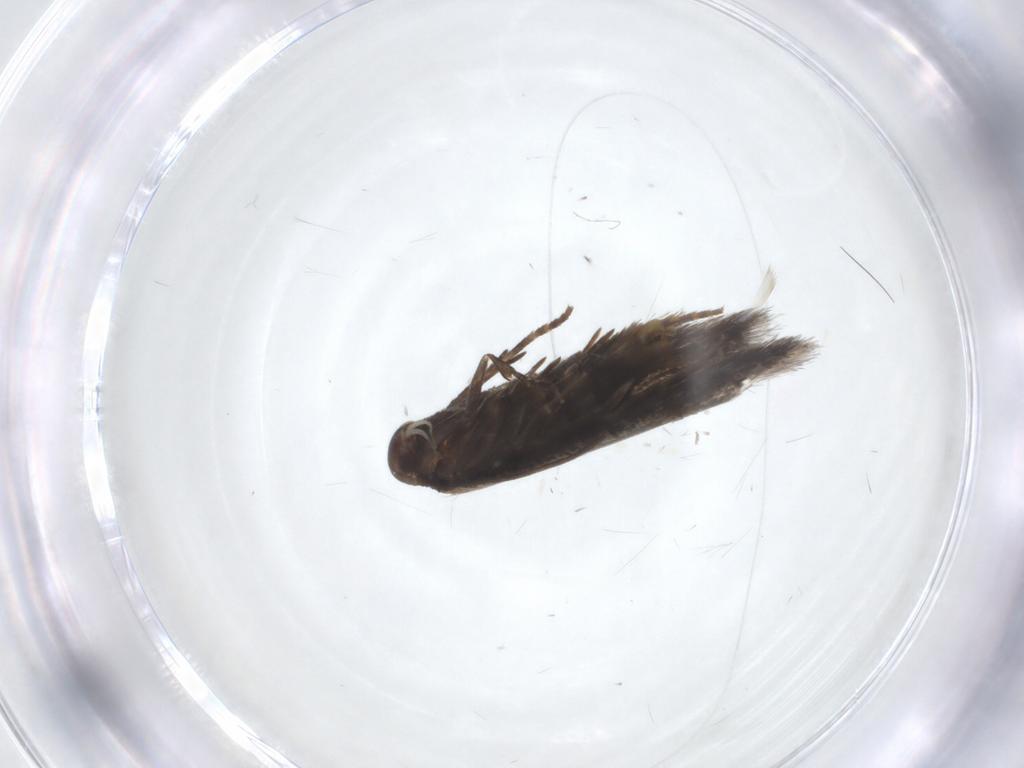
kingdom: Animalia
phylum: Arthropoda
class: Insecta
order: Lepidoptera
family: Elachistidae
